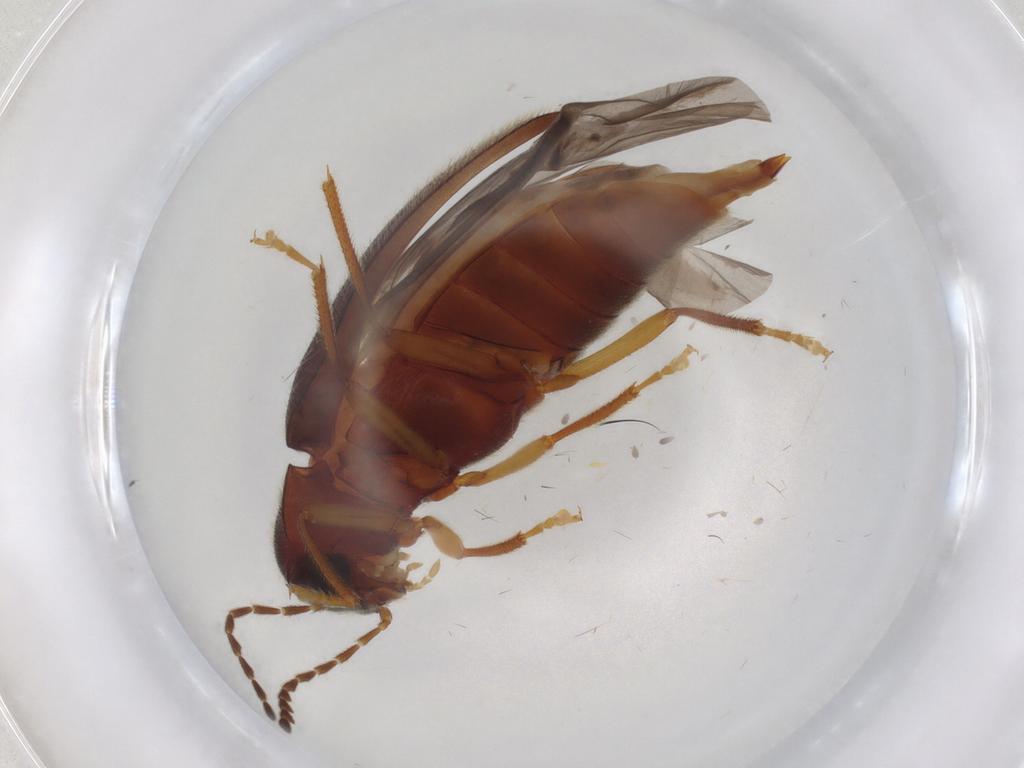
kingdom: Animalia
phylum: Arthropoda
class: Insecta
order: Coleoptera
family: Ptilodactylidae
